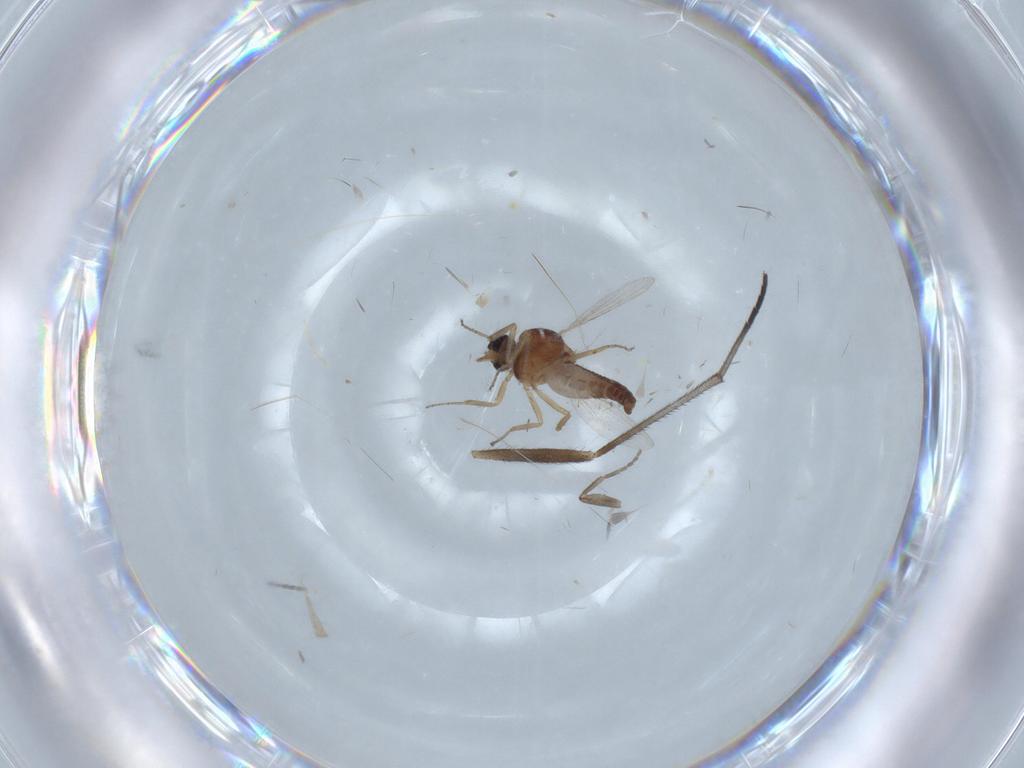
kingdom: Animalia
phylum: Arthropoda
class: Insecta
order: Diptera
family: Ceratopogonidae
